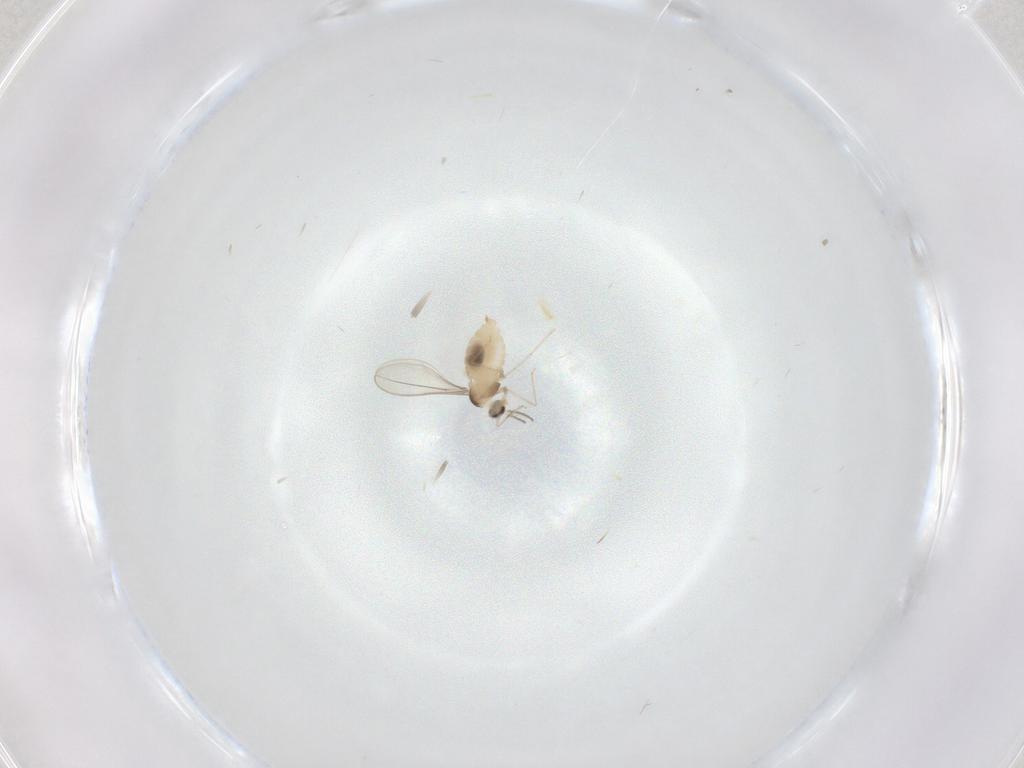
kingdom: Animalia
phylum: Arthropoda
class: Insecta
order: Diptera
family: Cecidomyiidae
